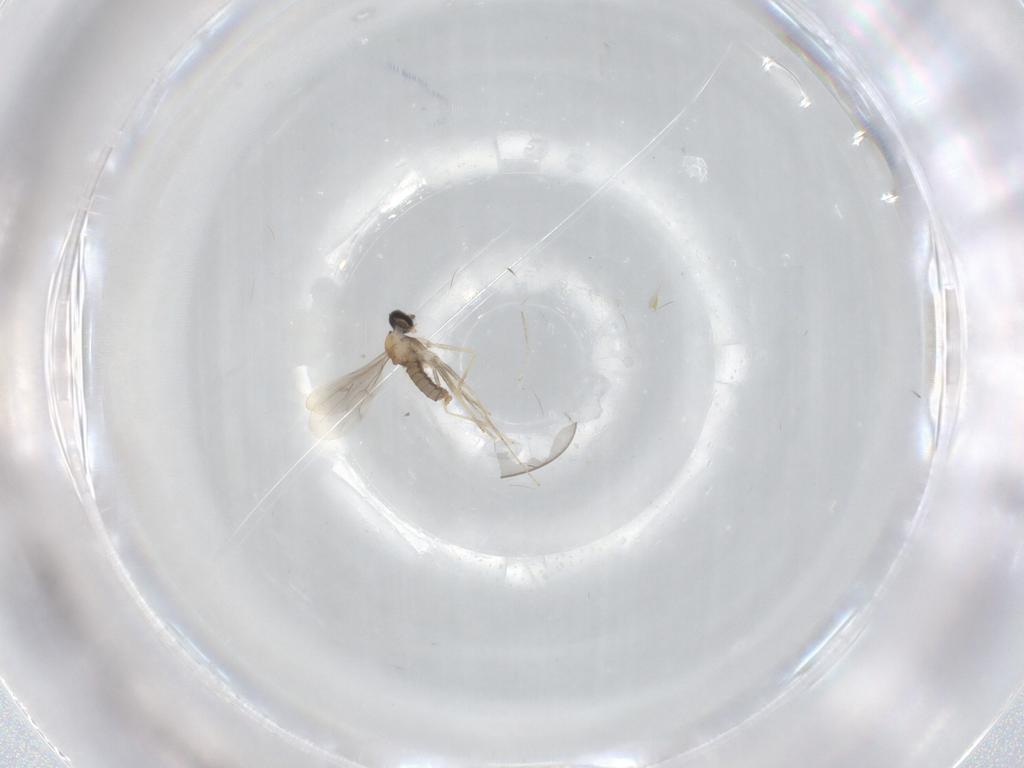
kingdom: Animalia
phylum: Arthropoda
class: Insecta
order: Diptera
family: Cecidomyiidae
